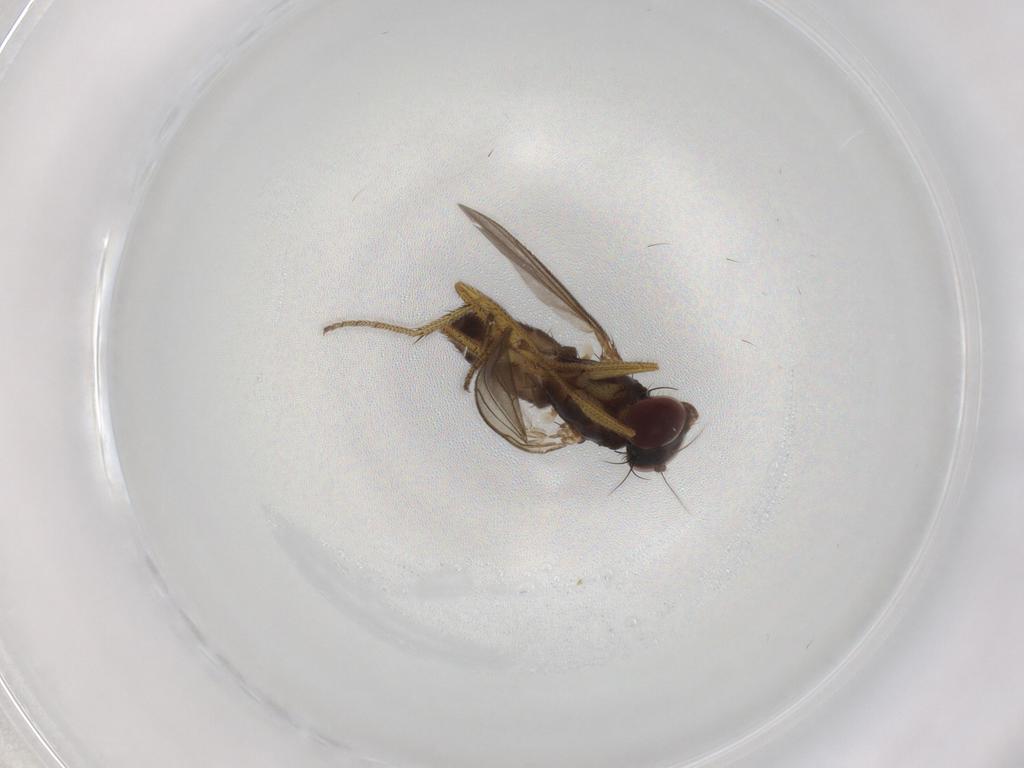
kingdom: Animalia
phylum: Arthropoda
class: Insecta
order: Diptera
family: Dolichopodidae
